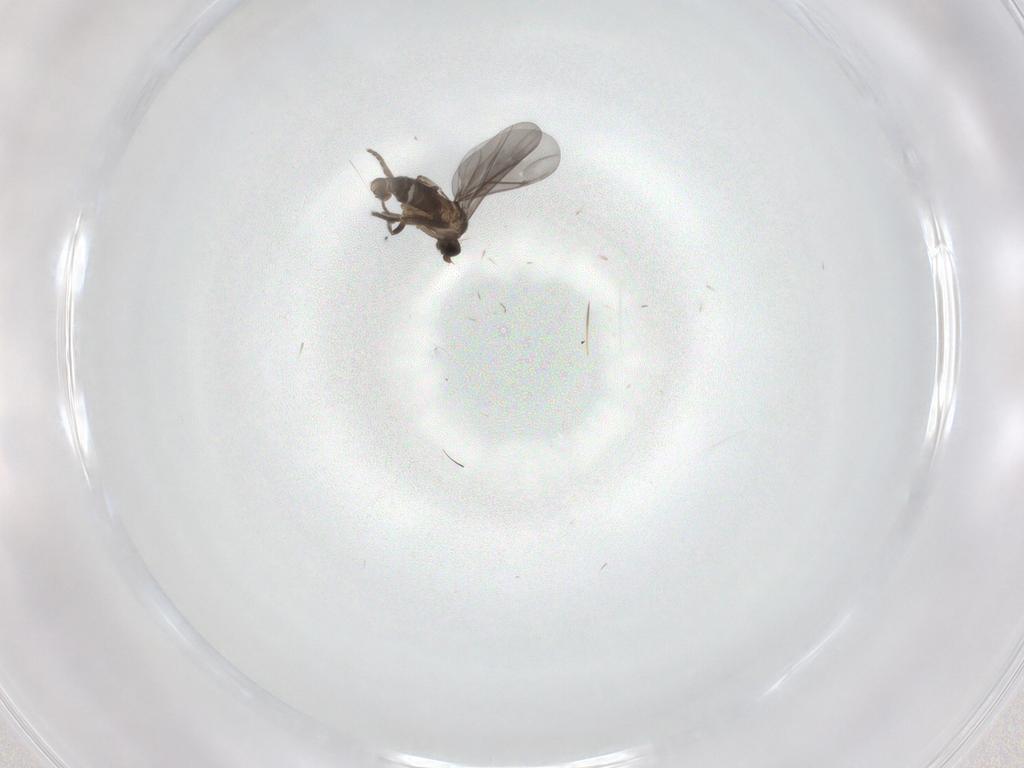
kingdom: Animalia
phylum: Arthropoda
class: Insecta
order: Diptera
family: Phoridae
